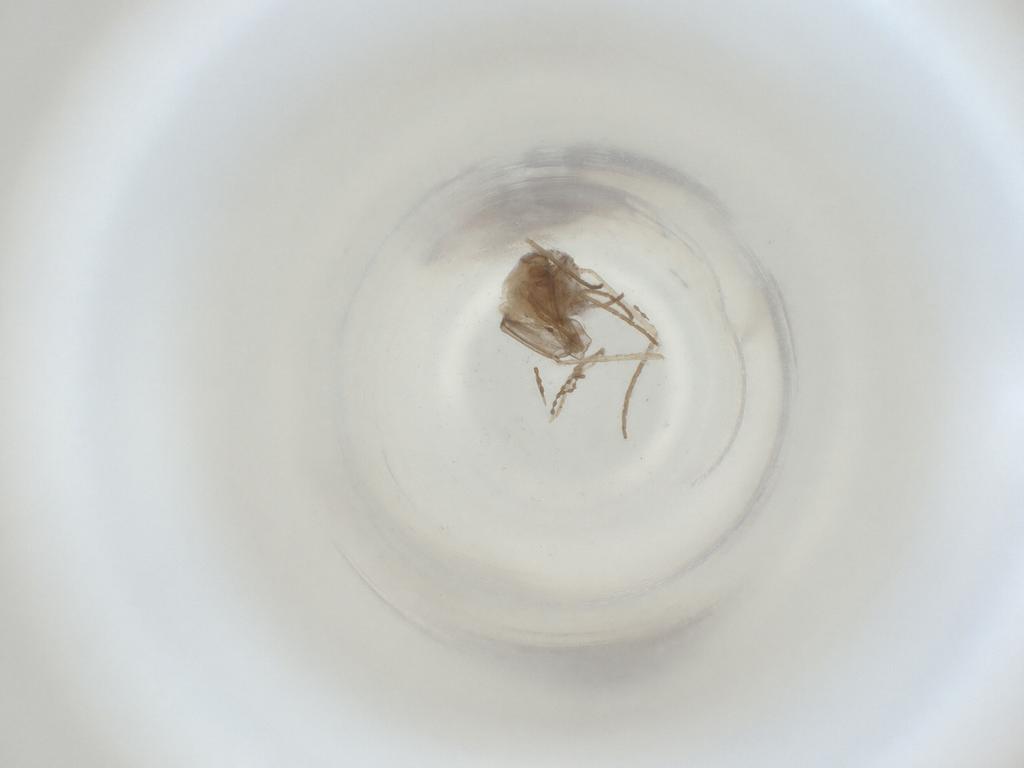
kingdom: Animalia
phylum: Arthropoda
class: Insecta
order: Diptera
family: Cecidomyiidae
